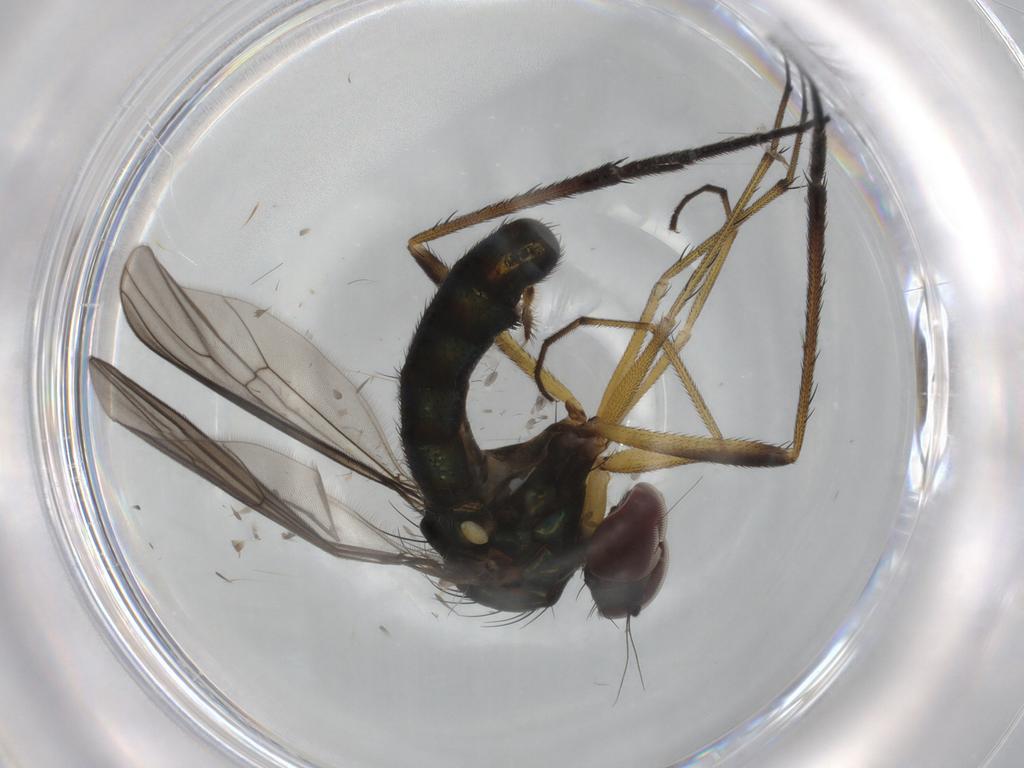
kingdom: Animalia
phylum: Arthropoda
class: Insecta
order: Diptera
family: Dolichopodidae
